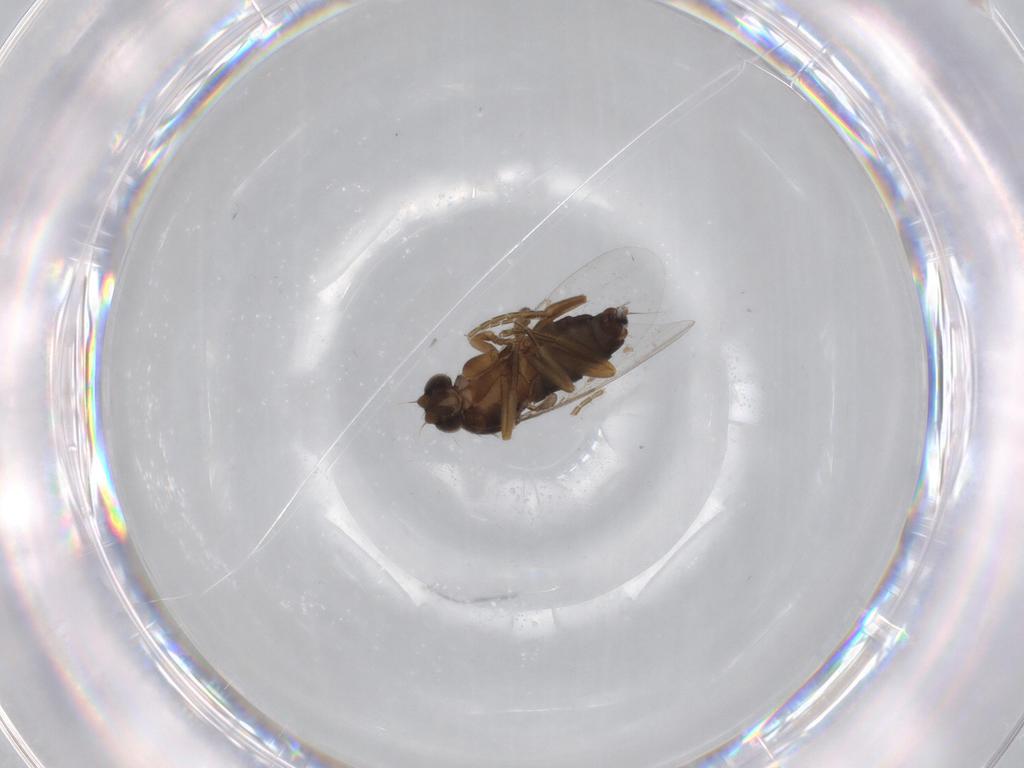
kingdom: Animalia
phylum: Arthropoda
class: Insecta
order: Diptera
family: Phoridae
